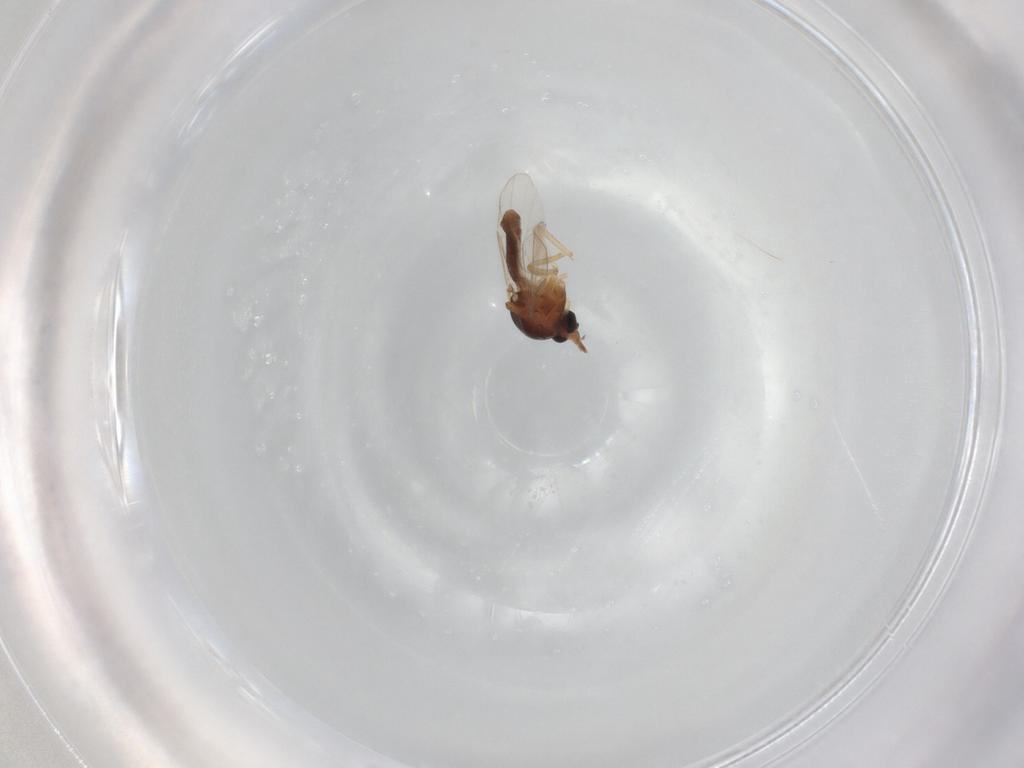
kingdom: Animalia
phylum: Arthropoda
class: Insecta
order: Diptera
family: Ceratopogonidae
